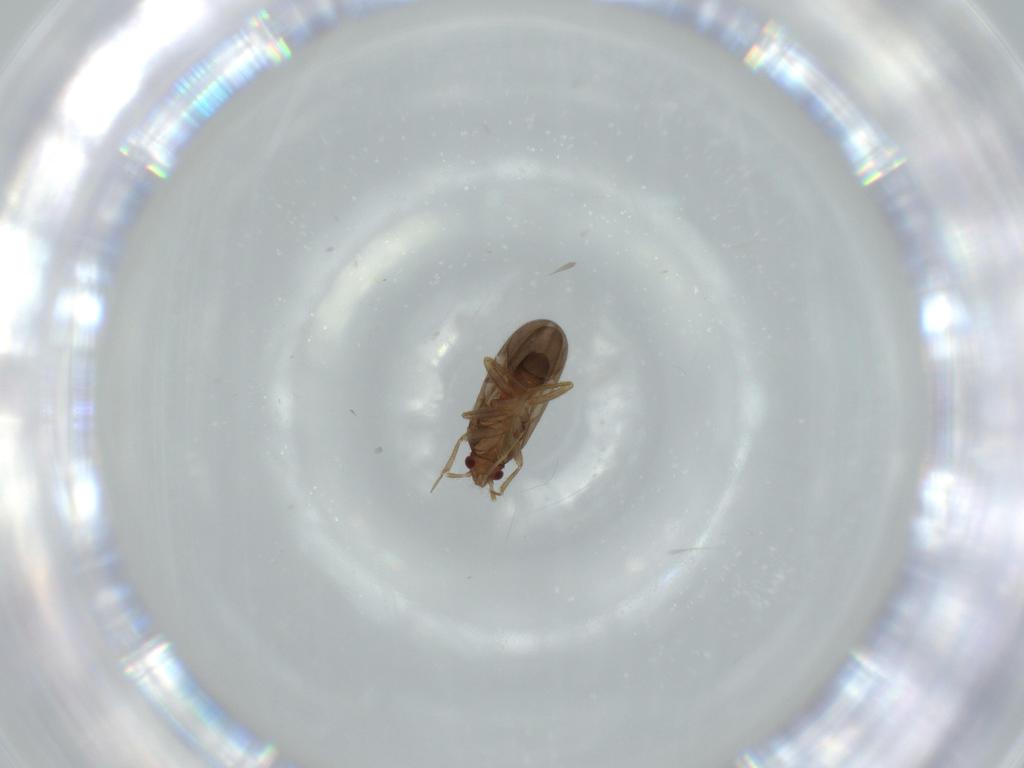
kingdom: Animalia
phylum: Arthropoda
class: Insecta
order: Hemiptera
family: Ceratocombidae
